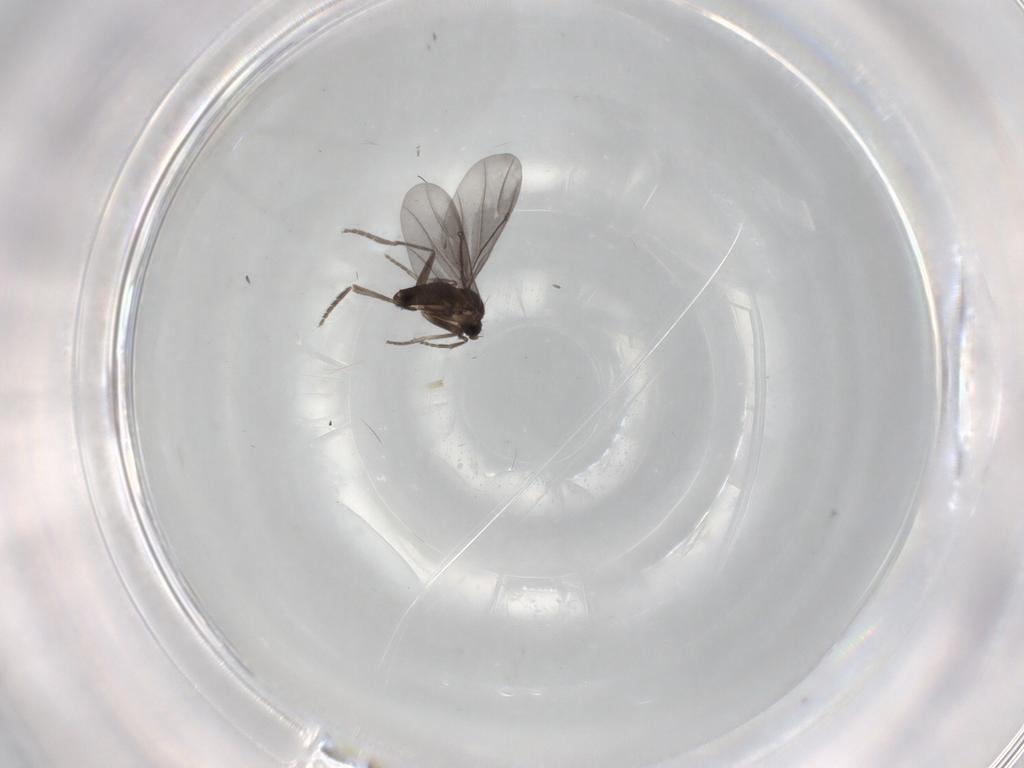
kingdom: Animalia
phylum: Arthropoda
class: Insecta
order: Diptera
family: Phoridae
